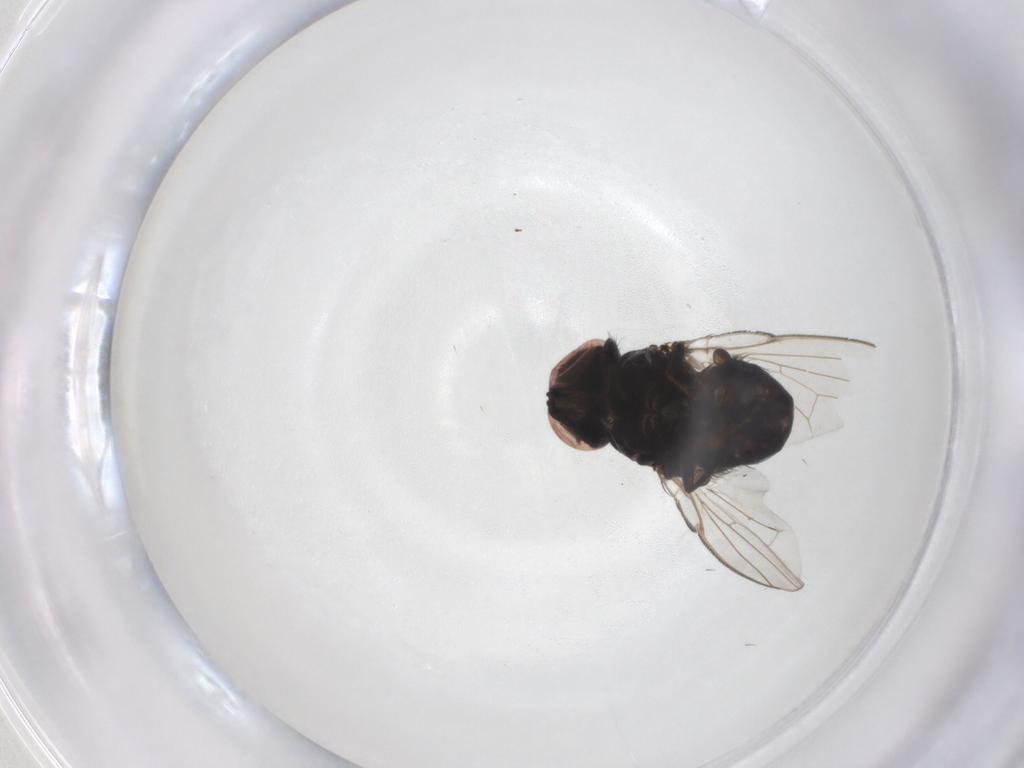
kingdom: Animalia
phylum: Arthropoda
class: Insecta
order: Diptera
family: Milichiidae
